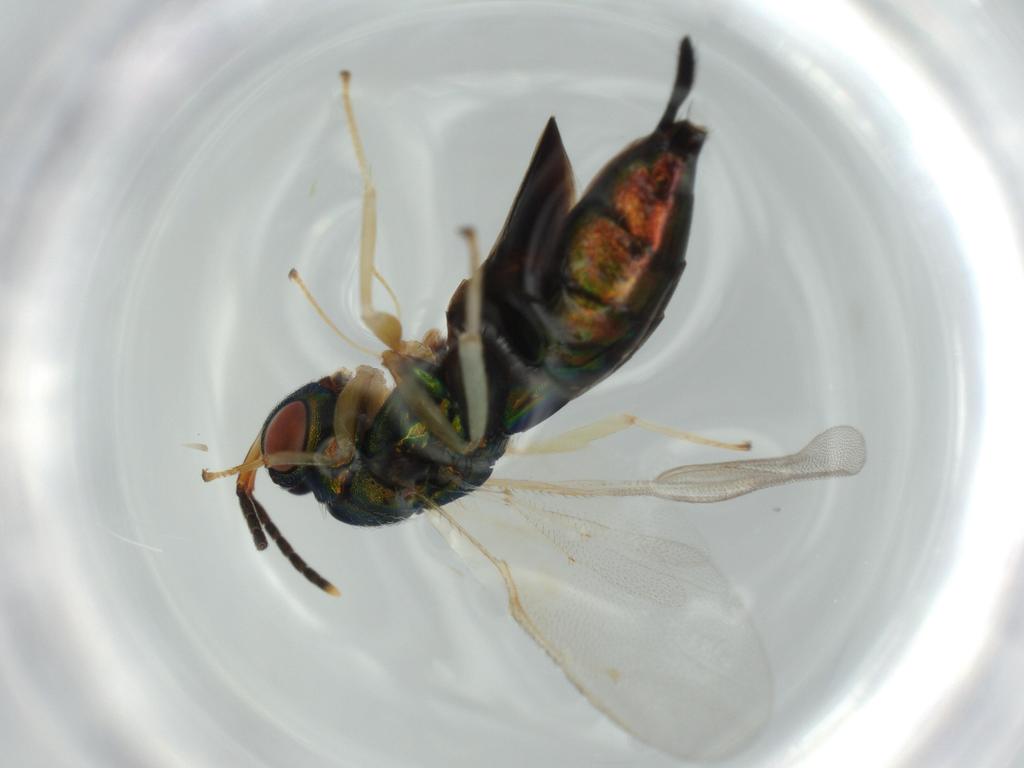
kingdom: Animalia
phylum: Arthropoda
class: Insecta
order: Hymenoptera
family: Pteromalidae
